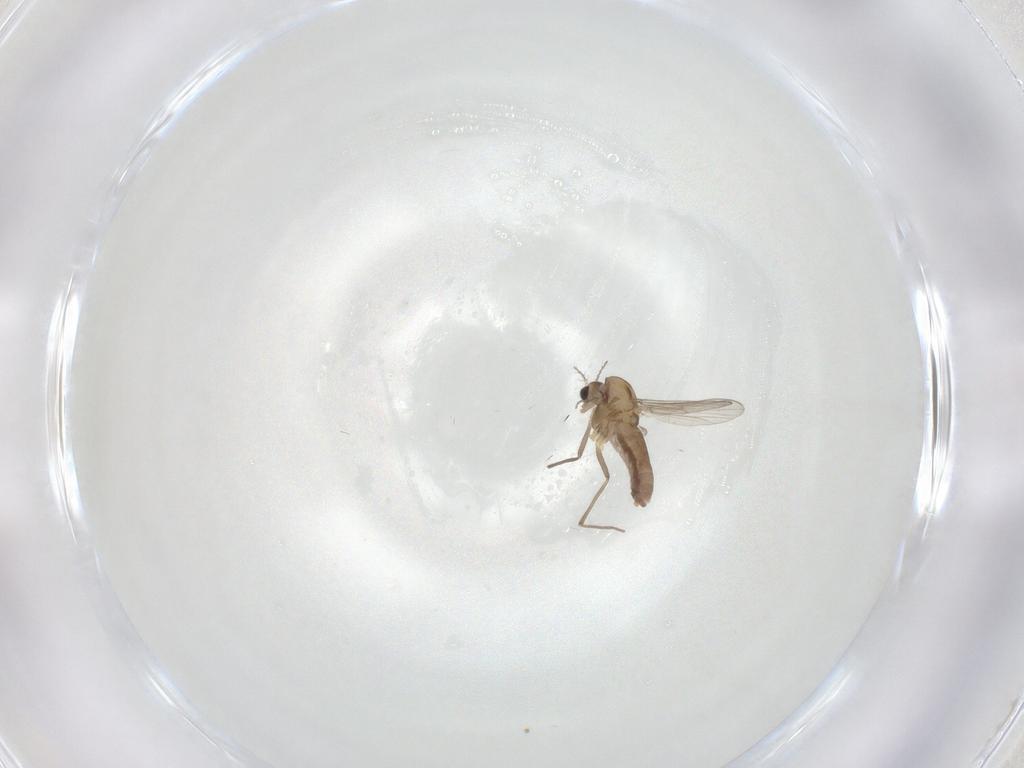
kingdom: Animalia
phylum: Arthropoda
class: Insecta
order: Diptera
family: Chironomidae
